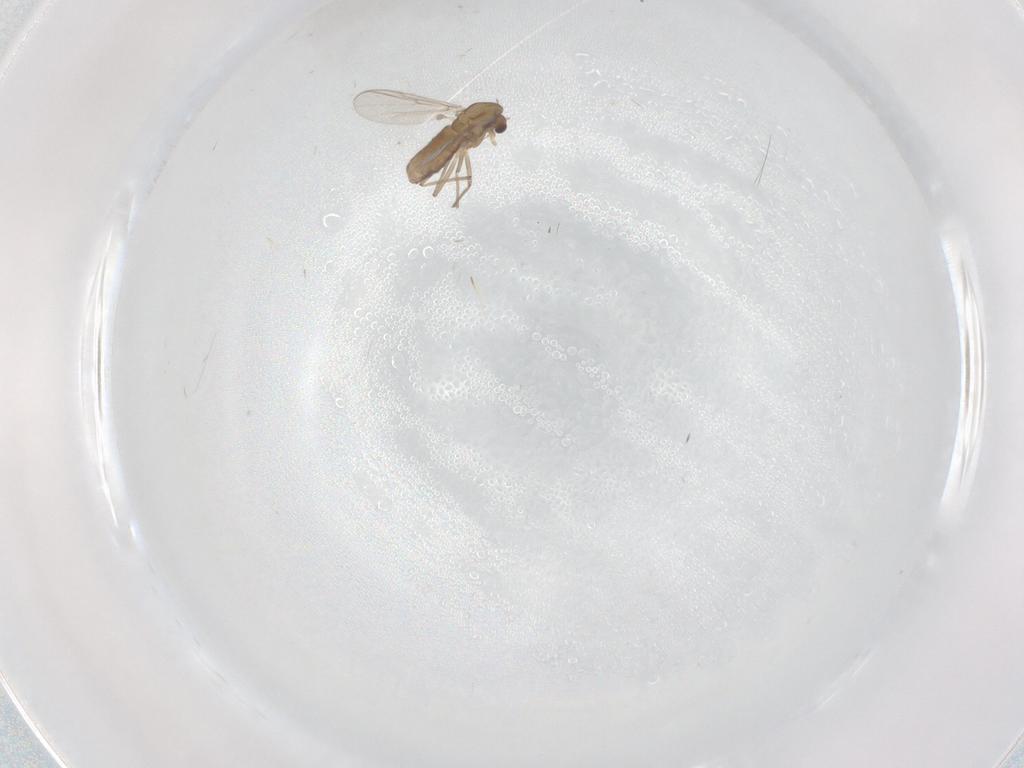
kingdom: Animalia
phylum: Arthropoda
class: Insecta
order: Diptera
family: Chironomidae
